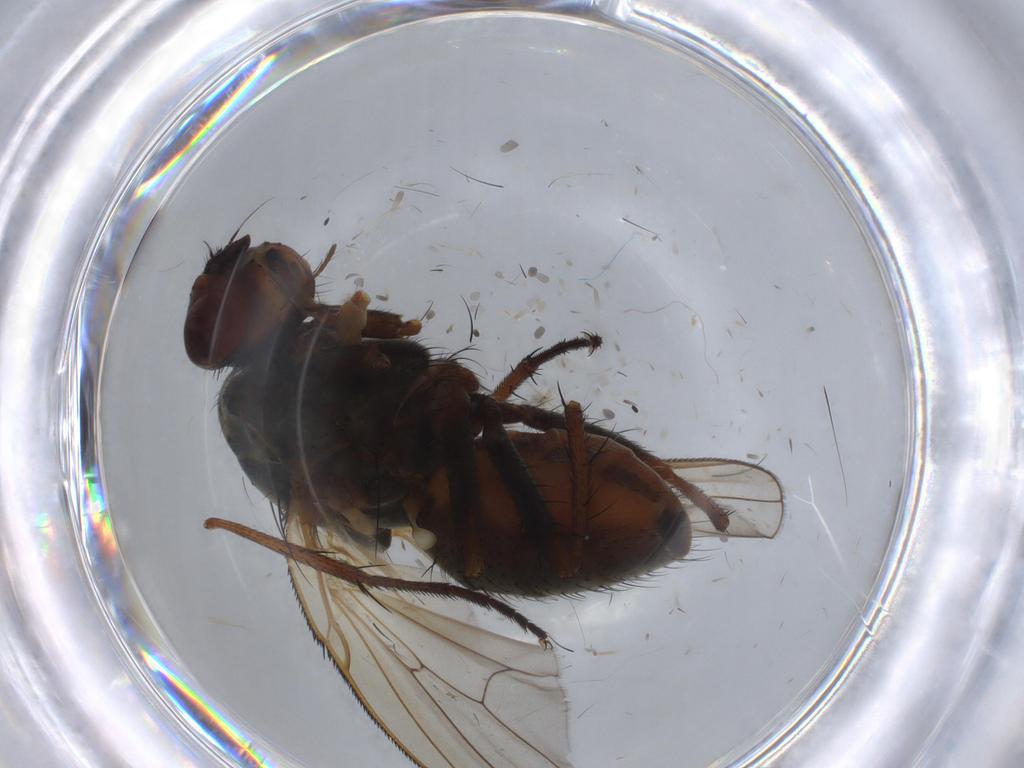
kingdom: Animalia
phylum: Arthropoda
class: Insecta
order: Diptera
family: Anthomyiidae
